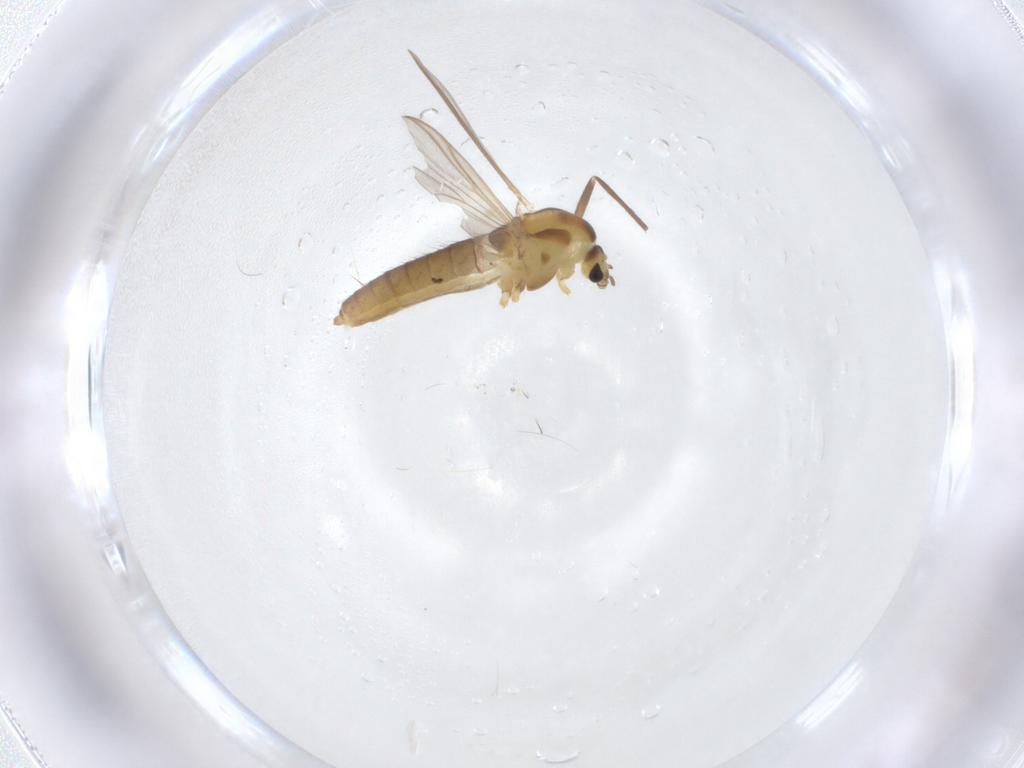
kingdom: Animalia
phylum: Arthropoda
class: Insecta
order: Diptera
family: Chironomidae
